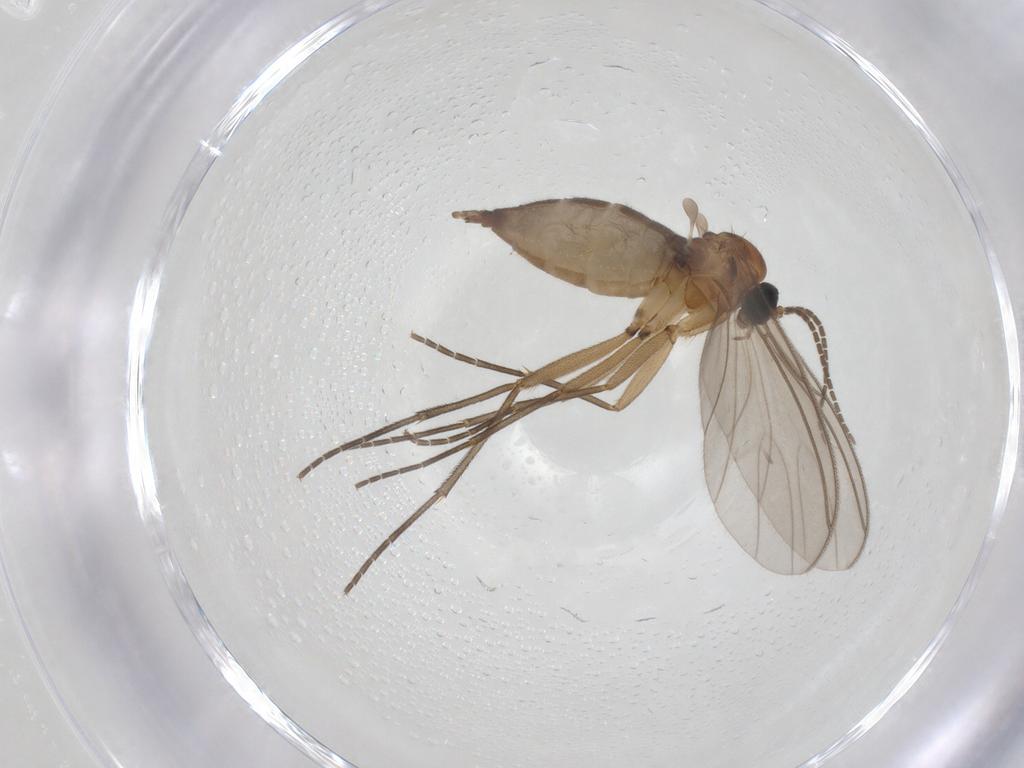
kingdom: Animalia
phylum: Arthropoda
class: Insecta
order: Diptera
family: Sciaridae
